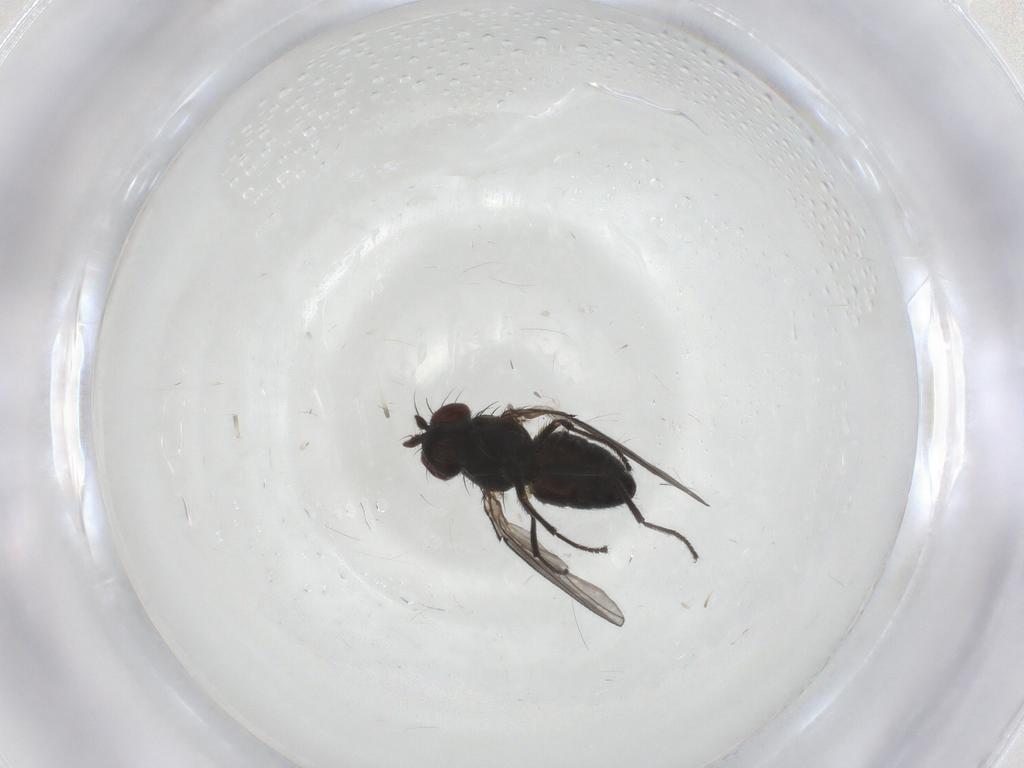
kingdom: Animalia
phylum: Arthropoda
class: Insecta
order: Diptera
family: Ephydridae
